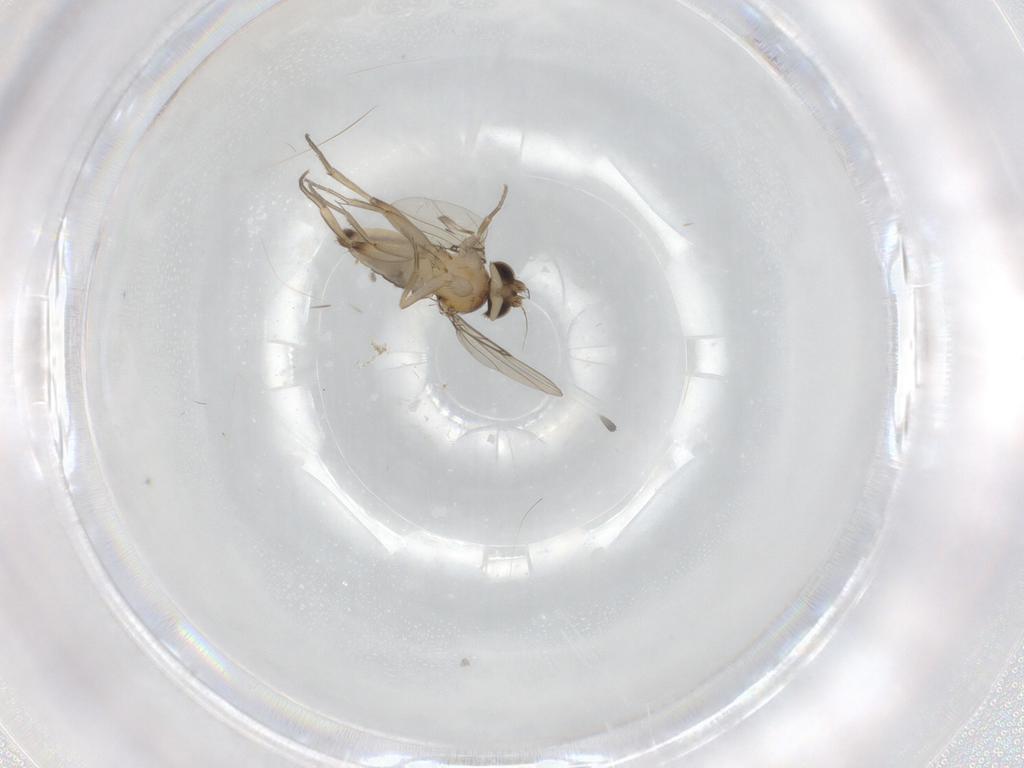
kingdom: Animalia
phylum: Arthropoda
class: Insecta
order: Diptera
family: Phoridae
